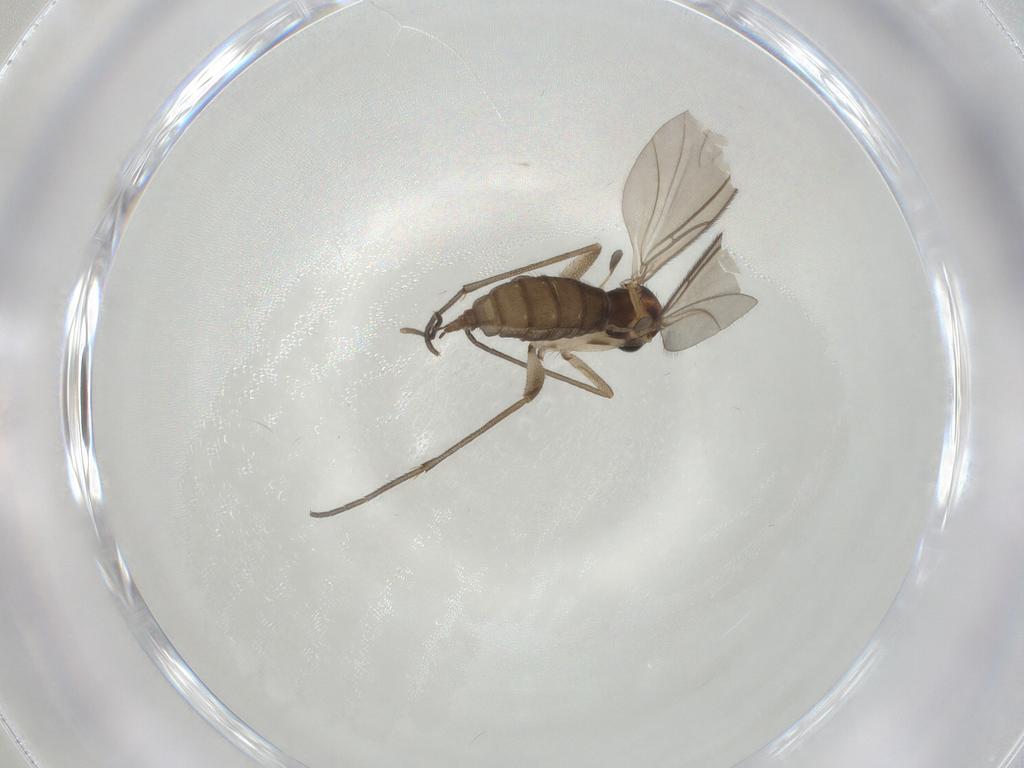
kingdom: Animalia
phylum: Arthropoda
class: Insecta
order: Diptera
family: Sciaridae
